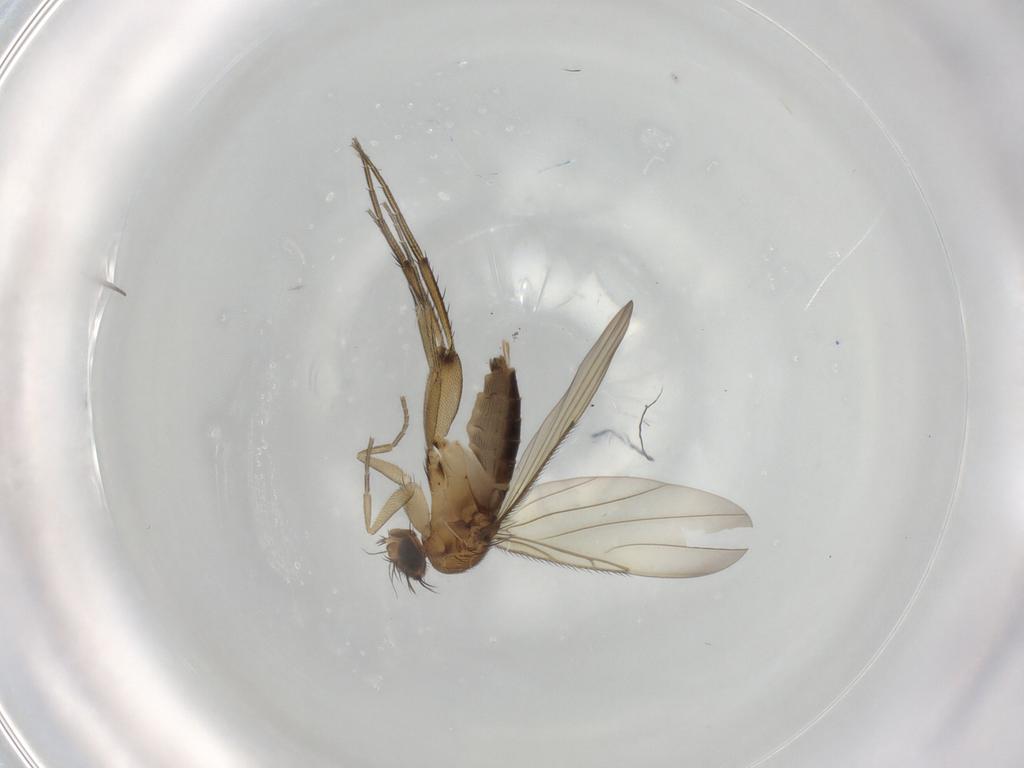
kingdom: Animalia
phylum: Arthropoda
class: Insecta
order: Diptera
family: Phoridae
